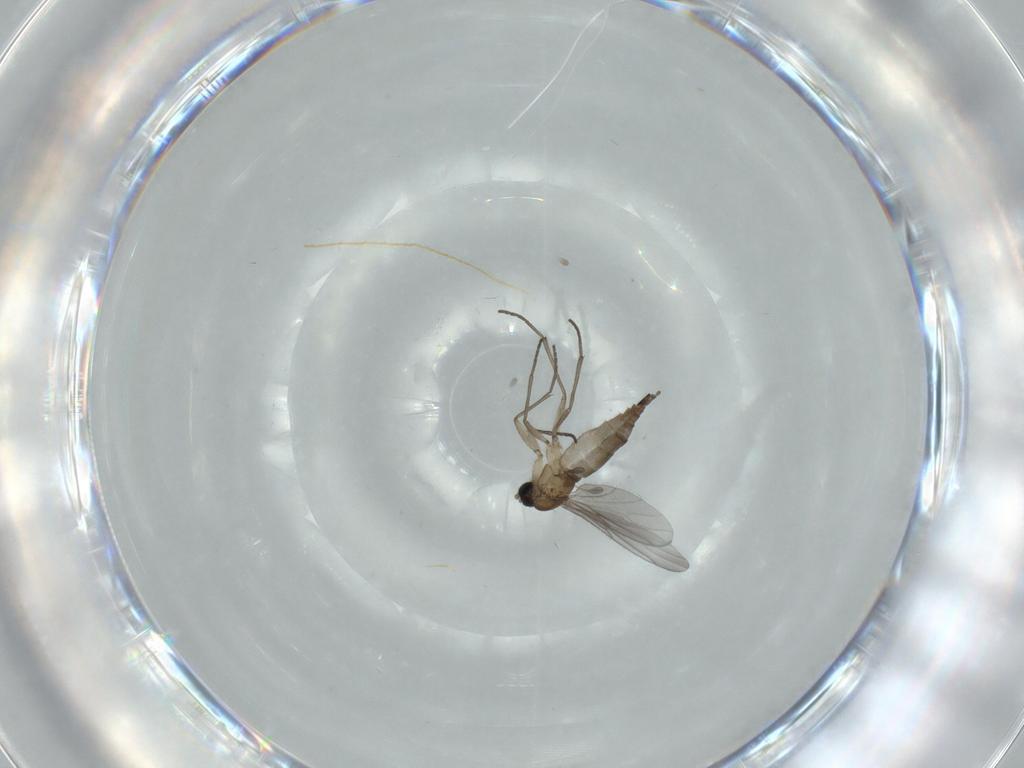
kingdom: Animalia
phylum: Arthropoda
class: Insecta
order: Diptera
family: Sciaridae
